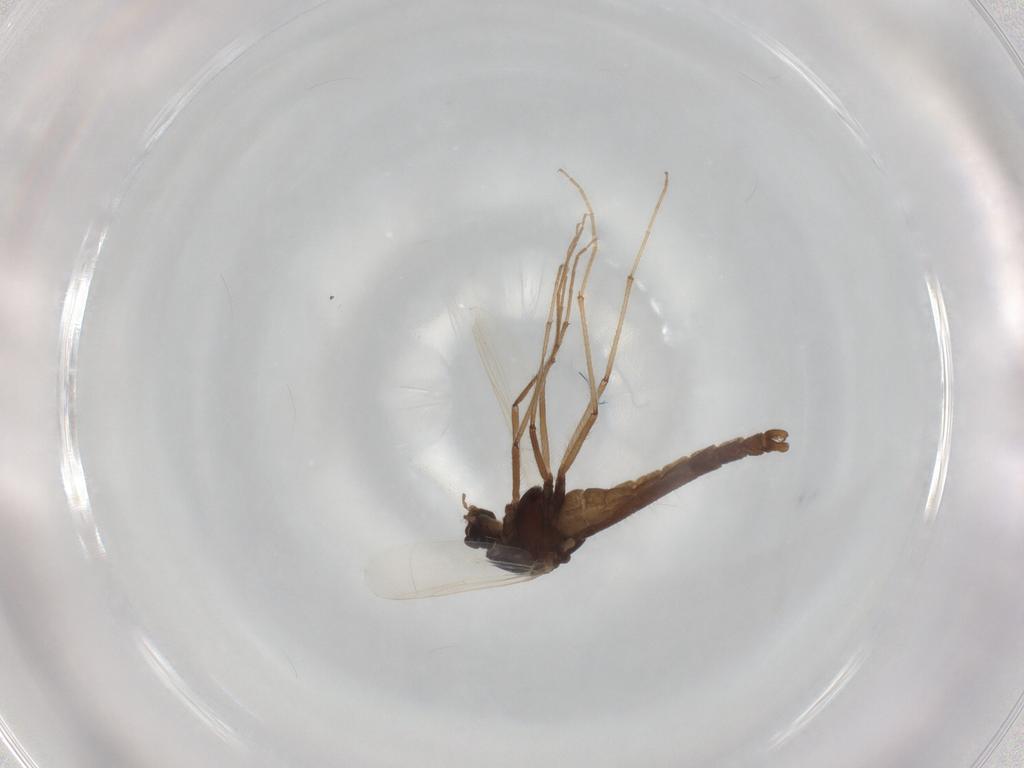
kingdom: Animalia
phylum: Arthropoda
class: Insecta
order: Diptera
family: Chironomidae
